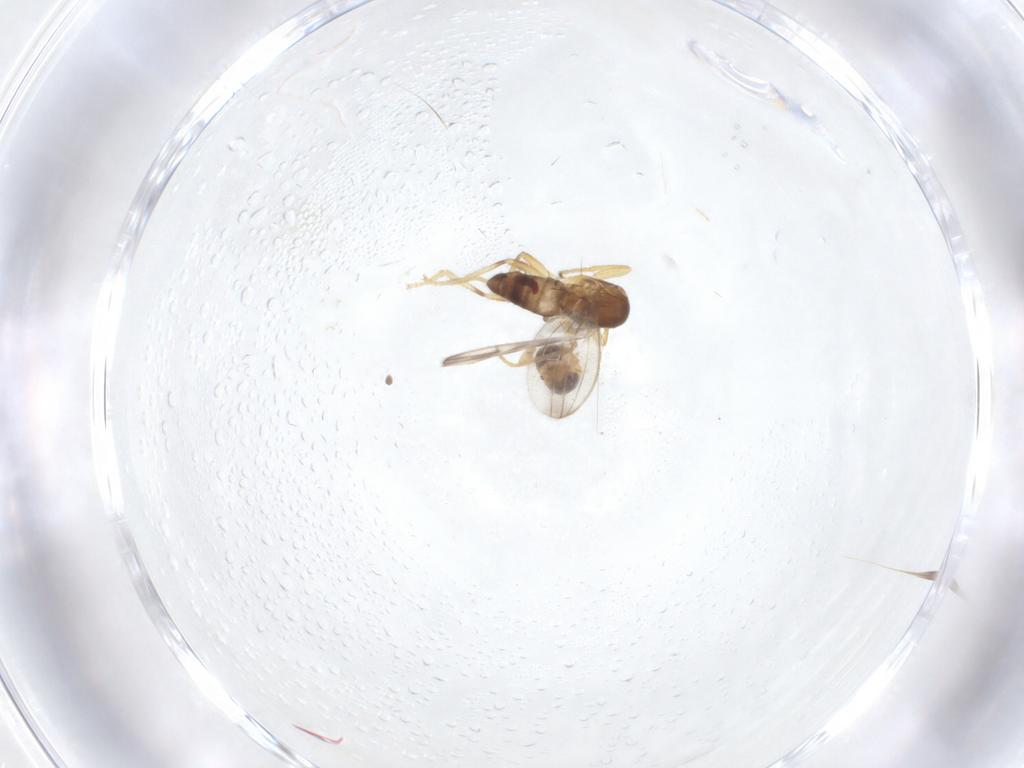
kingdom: Animalia
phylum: Arthropoda
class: Insecta
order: Diptera
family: Periscelididae
